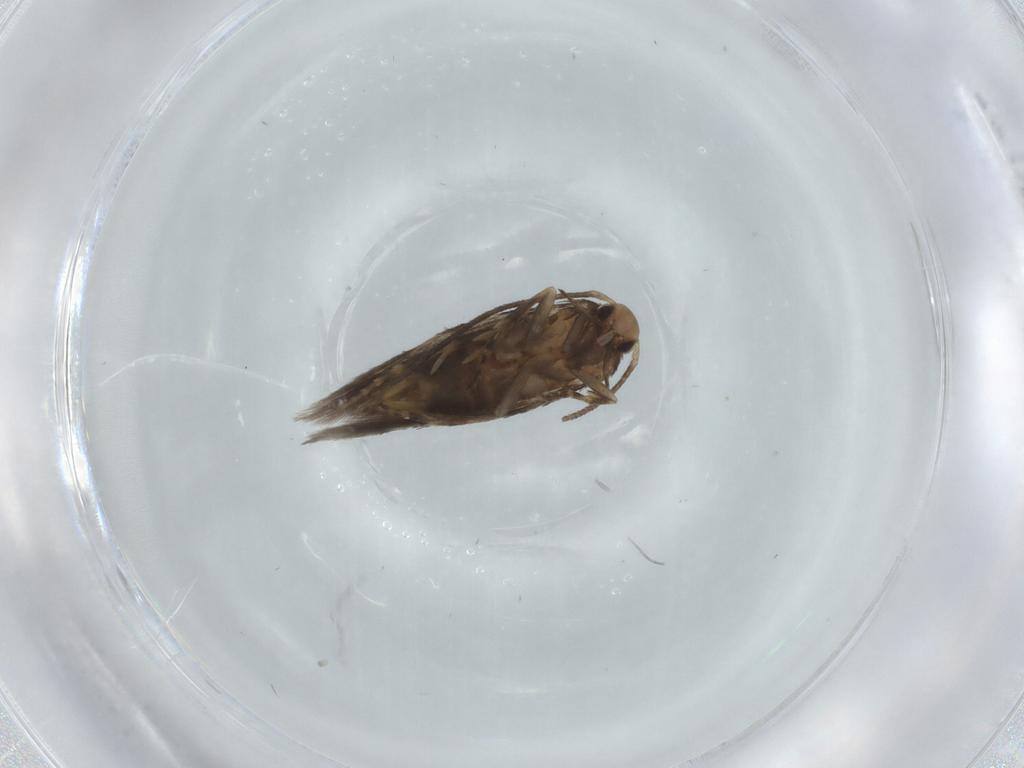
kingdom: Animalia
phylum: Arthropoda
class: Insecta
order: Lepidoptera
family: Elachistidae
